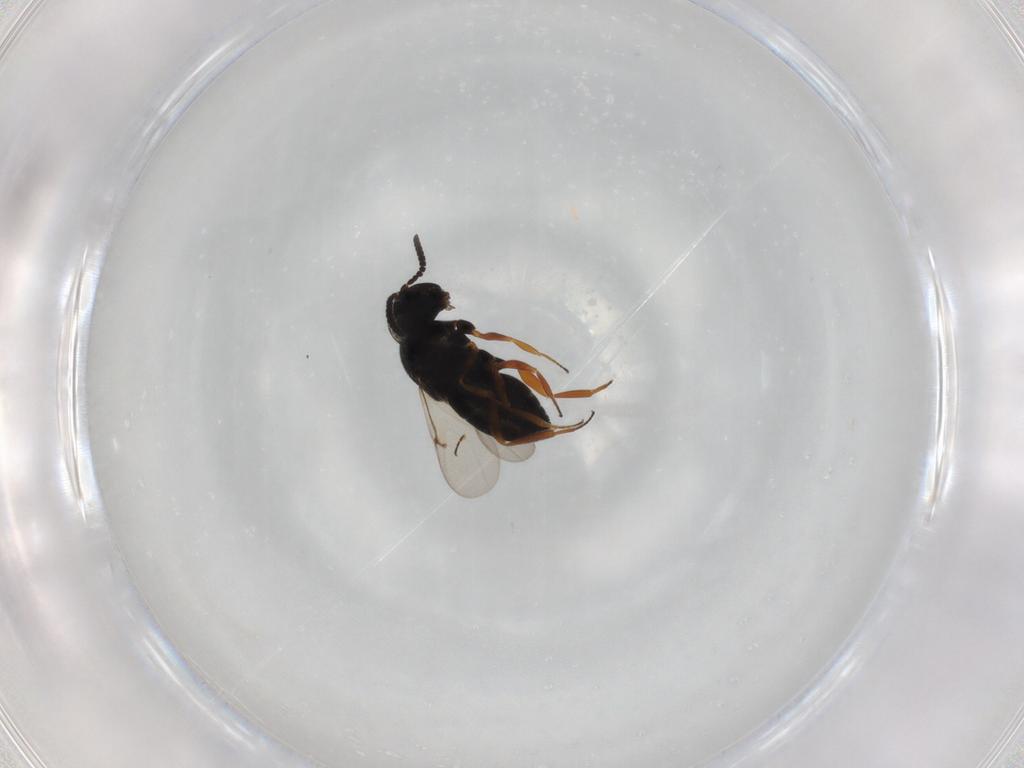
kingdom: Animalia
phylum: Arthropoda
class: Insecta
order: Hymenoptera
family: Scelionidae
